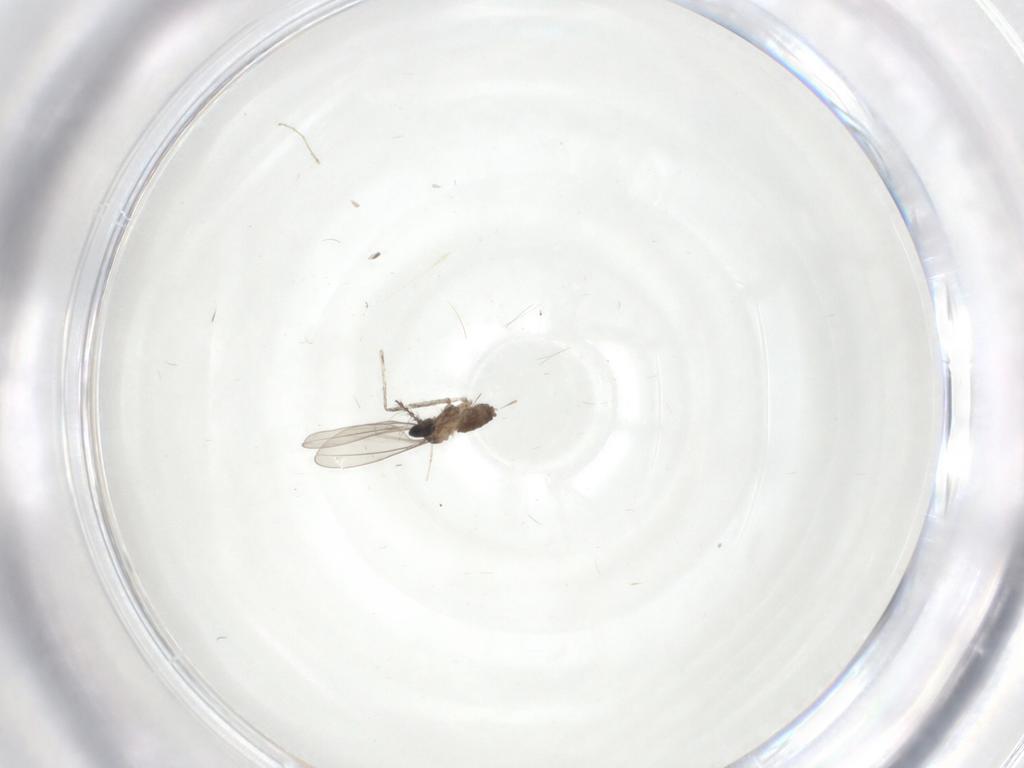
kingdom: Animalia
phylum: Arthropoda
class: Insecta
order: Diptera
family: Cecidomyiidae
